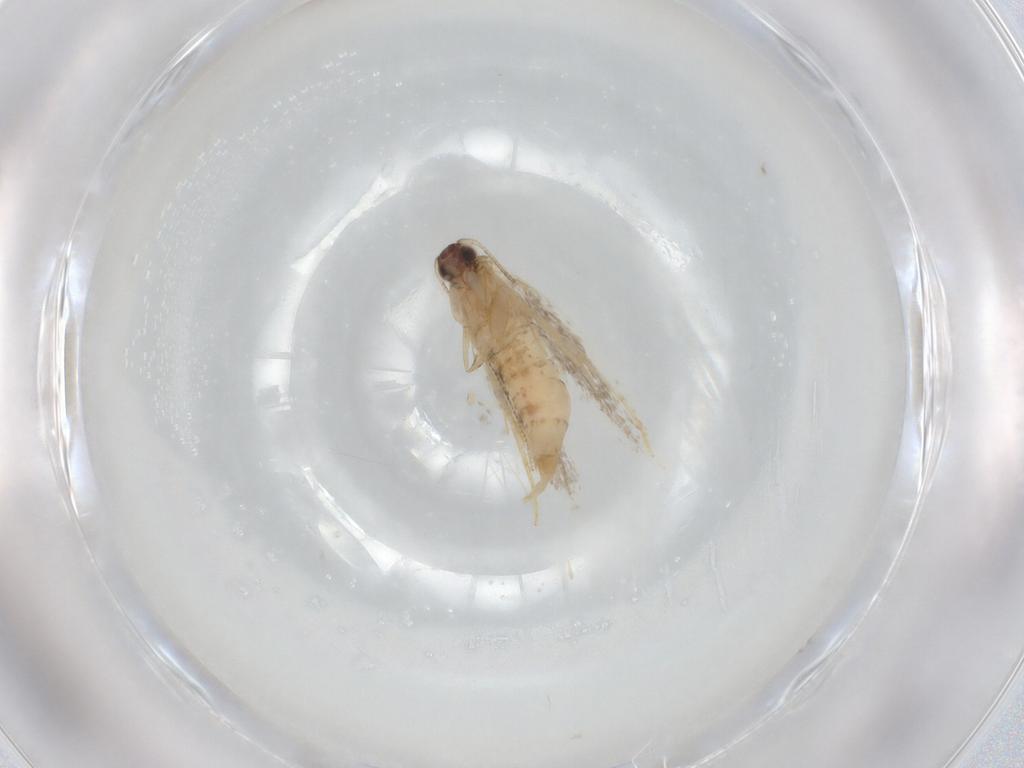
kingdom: Animalia
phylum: Arthropoda
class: Insecta
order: Lepidoptera
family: Tineidae
